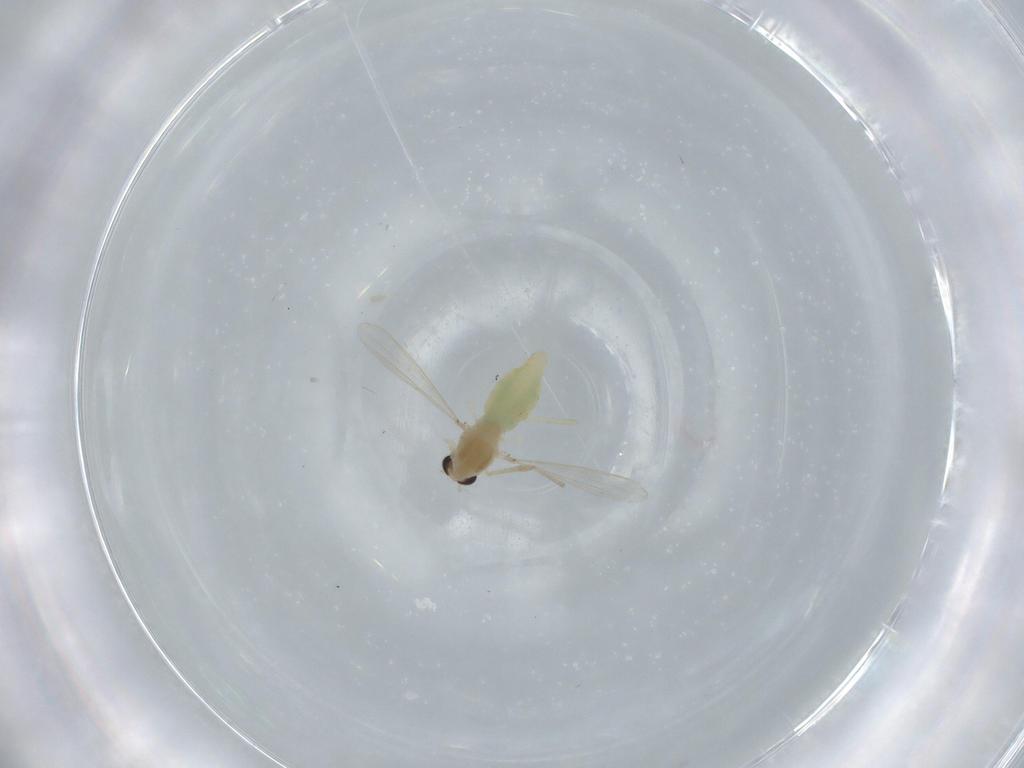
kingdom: Animalia
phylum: Arthropoda
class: Insecta
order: Diptera
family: Chironomidae
